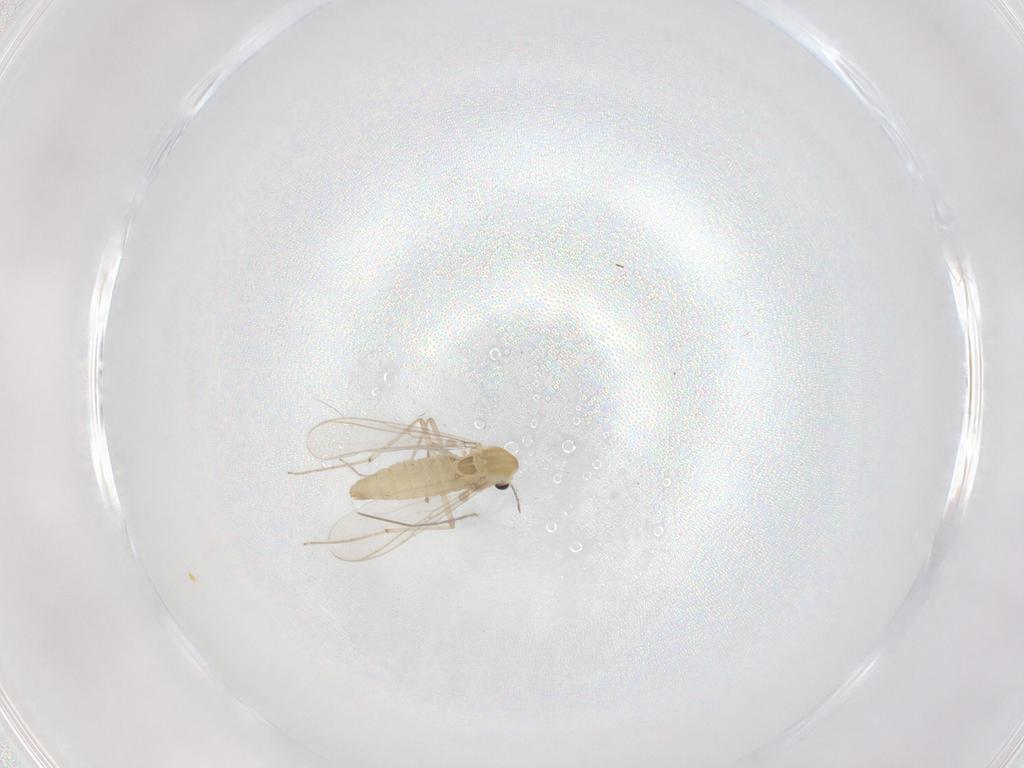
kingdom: Animalia
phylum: Arthropoda
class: Insecta
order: Diptera
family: Chironomidae
